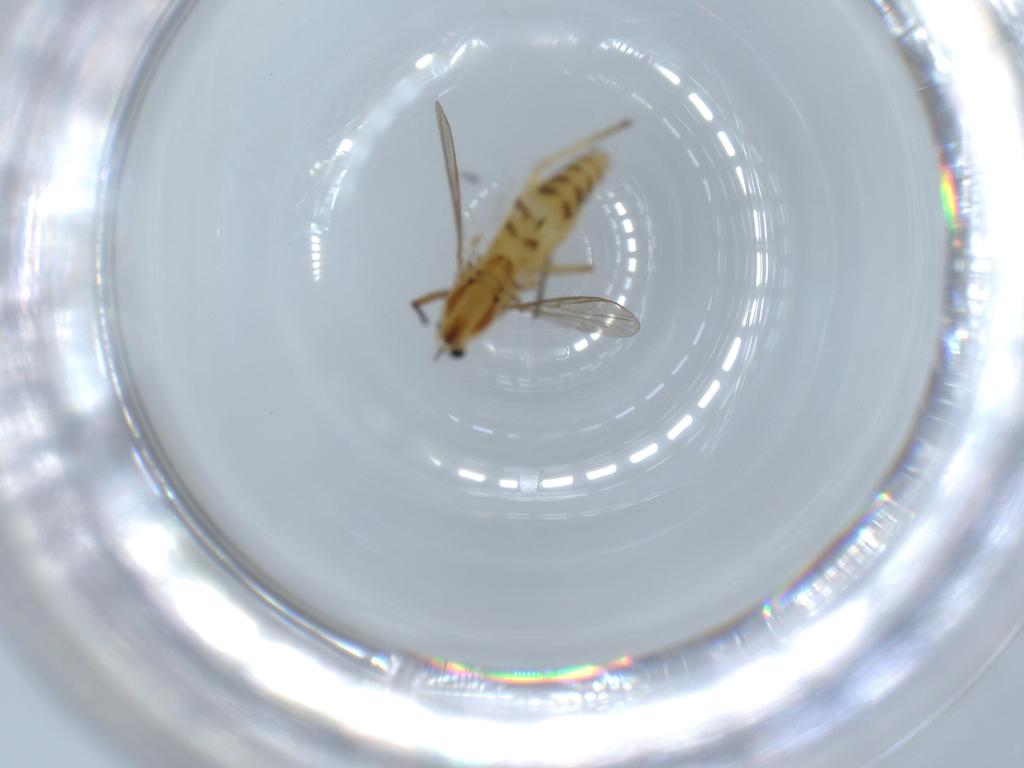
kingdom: Animalia
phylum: Arthropoda
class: Insecta
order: Diptera
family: Chironomidae
